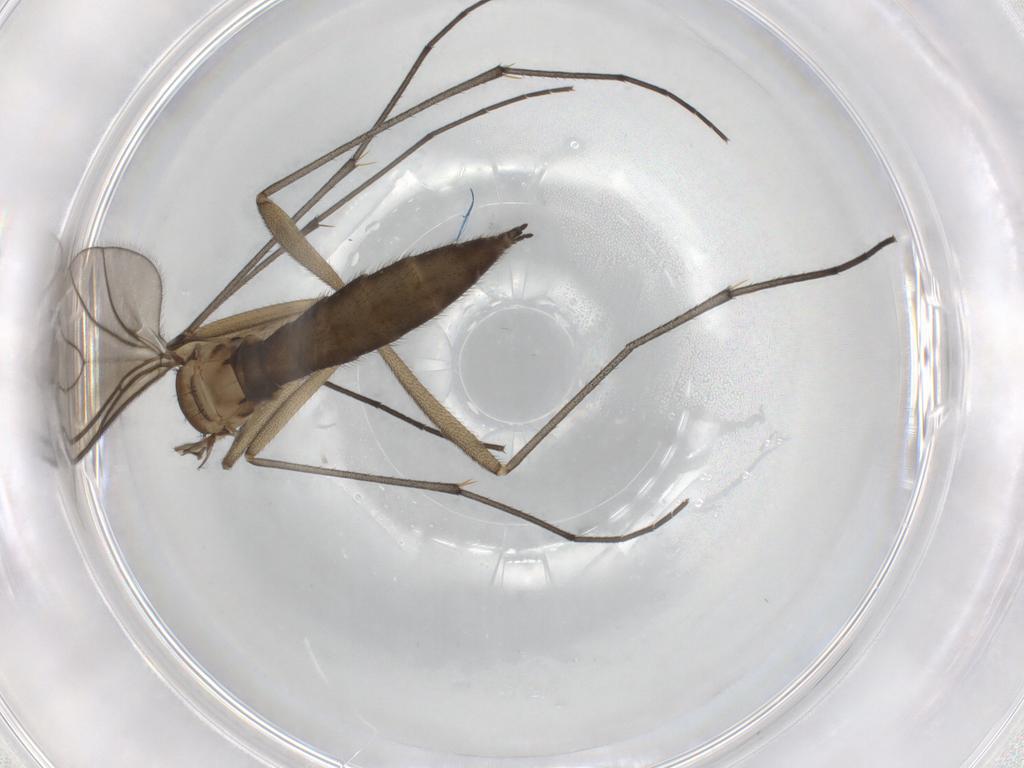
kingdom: Animalia
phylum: Arthropoda
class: Insecta
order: Diptera
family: Sciaridae
